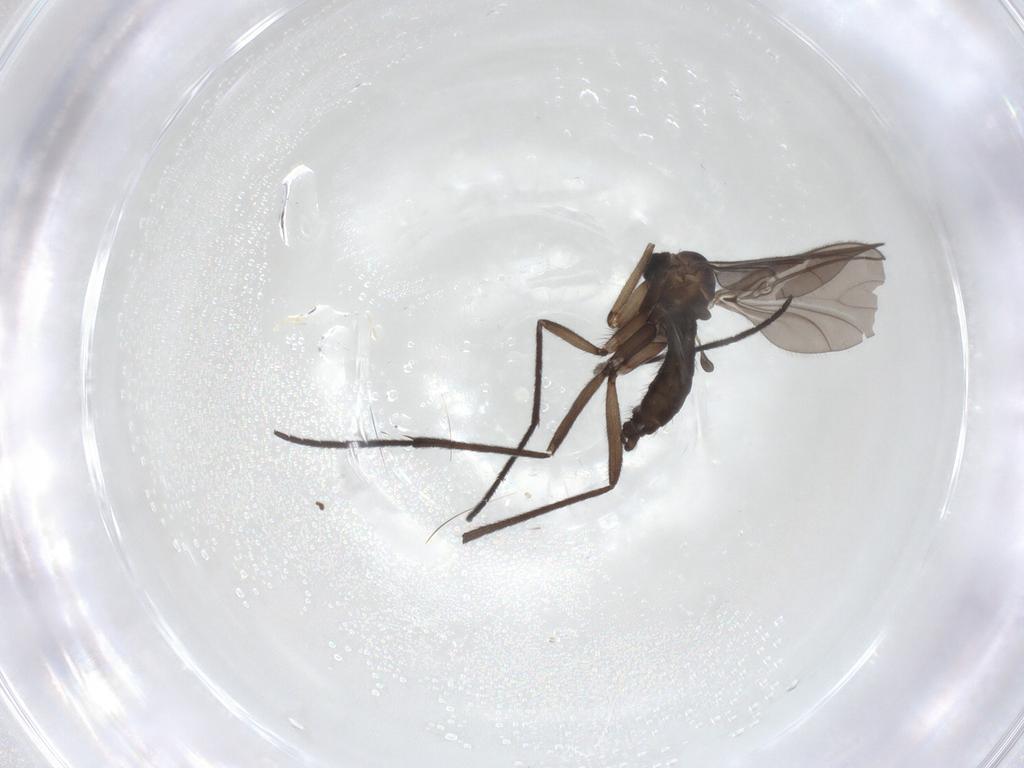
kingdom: Animalia
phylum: Arthropoda
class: Insecta
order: Diptera
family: Sciaridae
